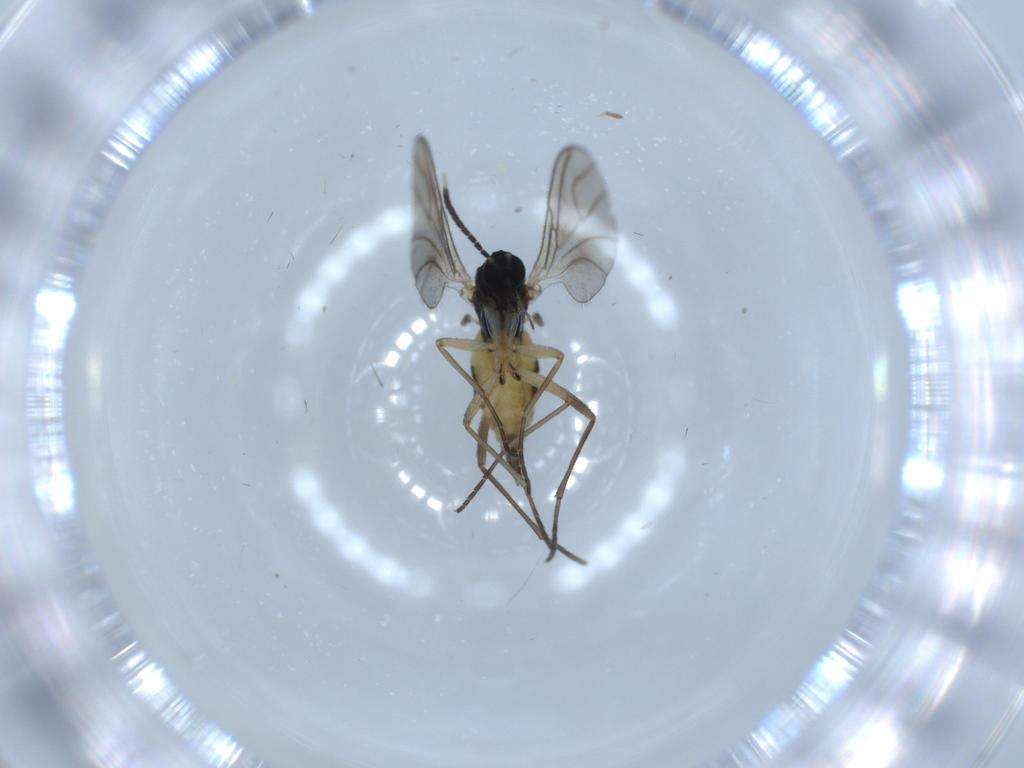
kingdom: Animalia
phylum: Arthropoda
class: Insecta
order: Diptera
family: Sciaridae
